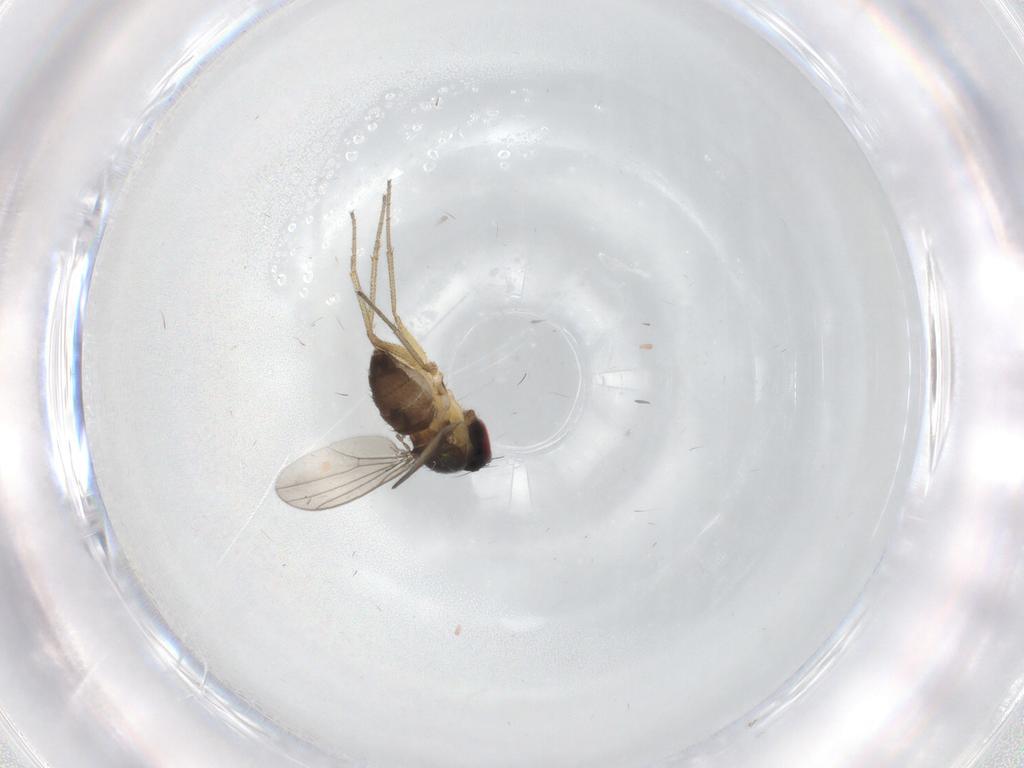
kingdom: Animalia
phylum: Arthropoda
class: Insecta
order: Diptera
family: Dolichopodidae
